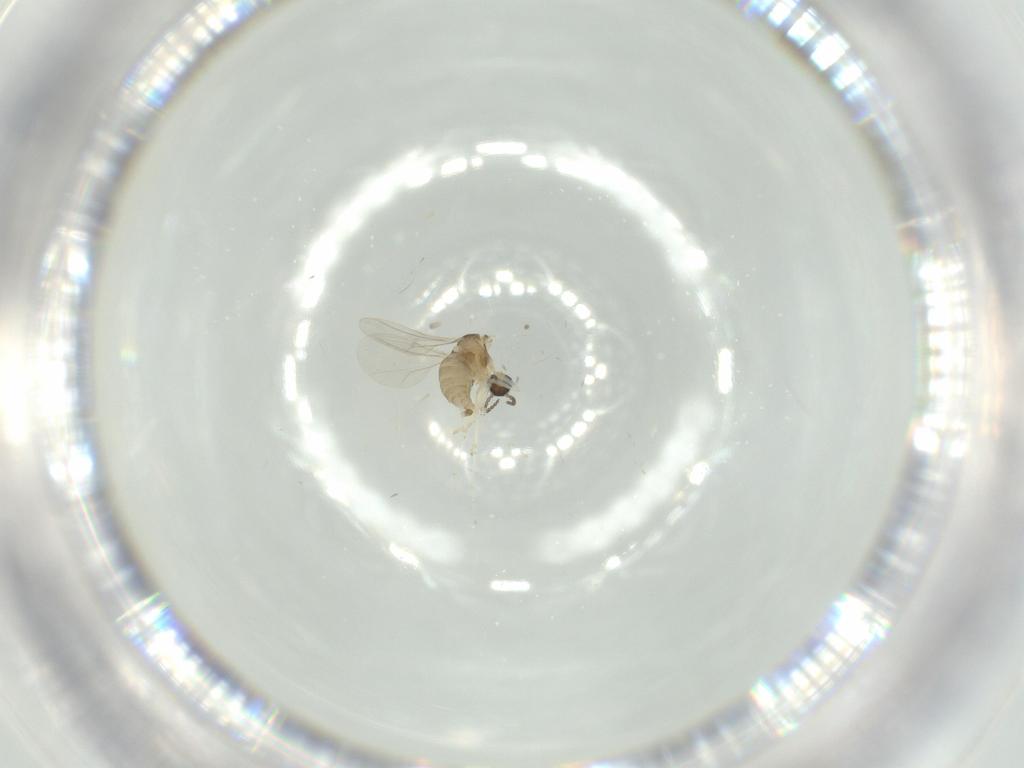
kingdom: Animalia
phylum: Arthropoda
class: Insecta
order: Diptera
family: Cecidomyiidae
